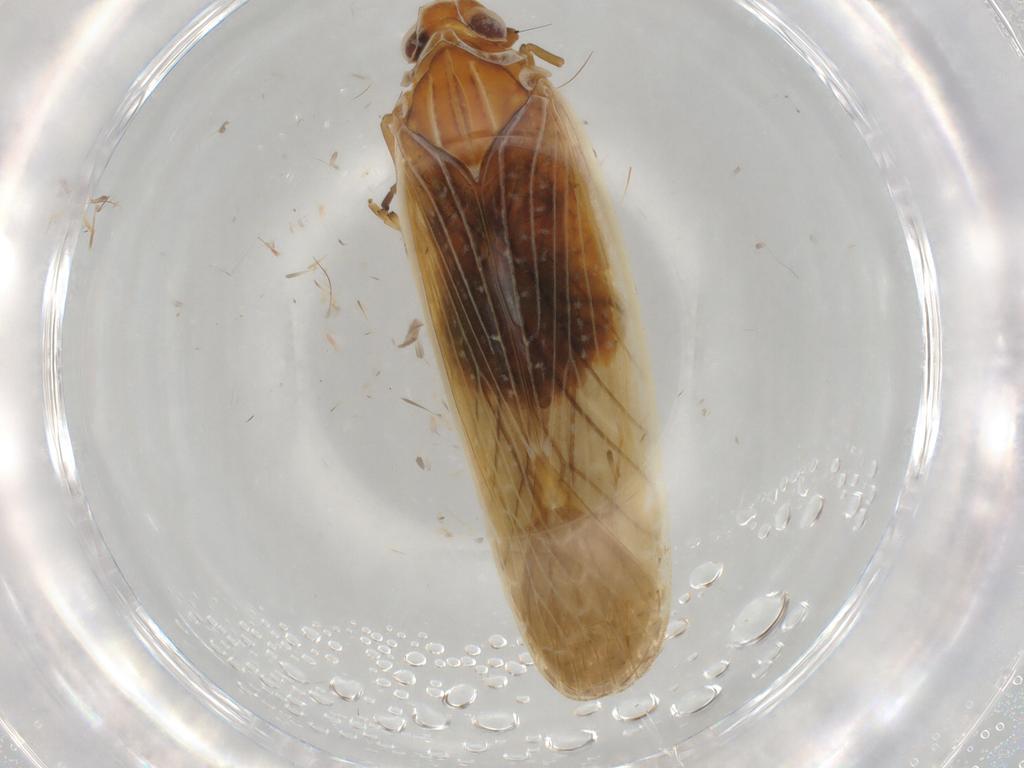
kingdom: Animalia
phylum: Arthropoda
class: Insecta
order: Hemiptera
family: Achilidae
